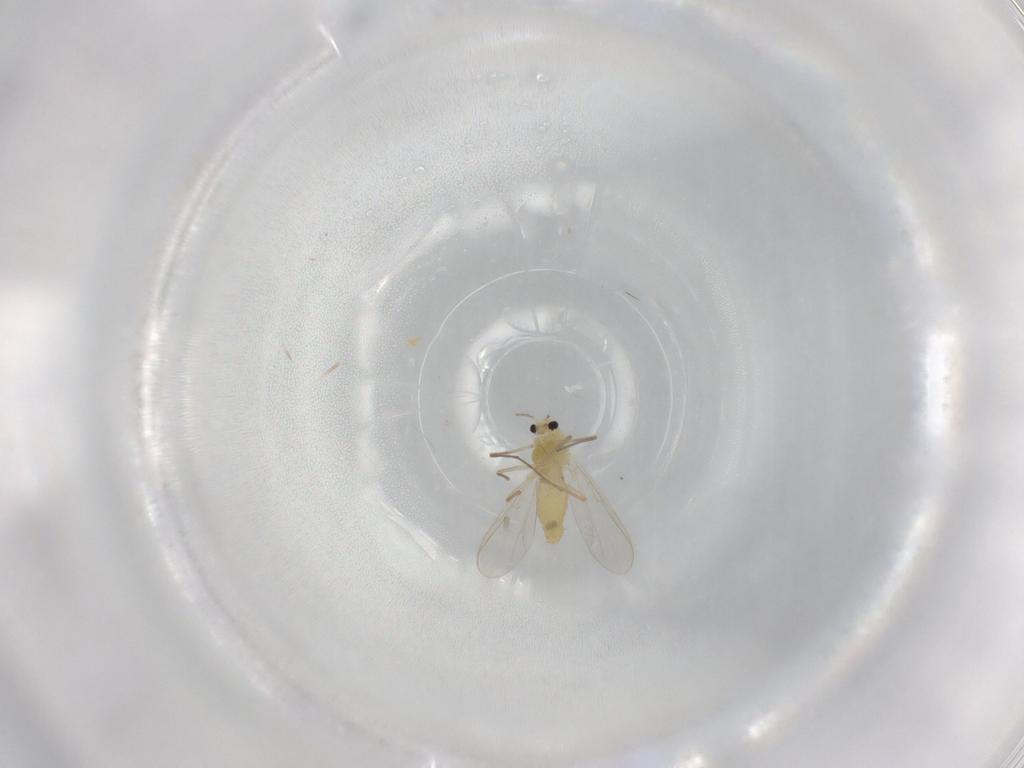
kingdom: Animalia
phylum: Arthropoda
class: Insecta
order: Diptera
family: Chironomidae
